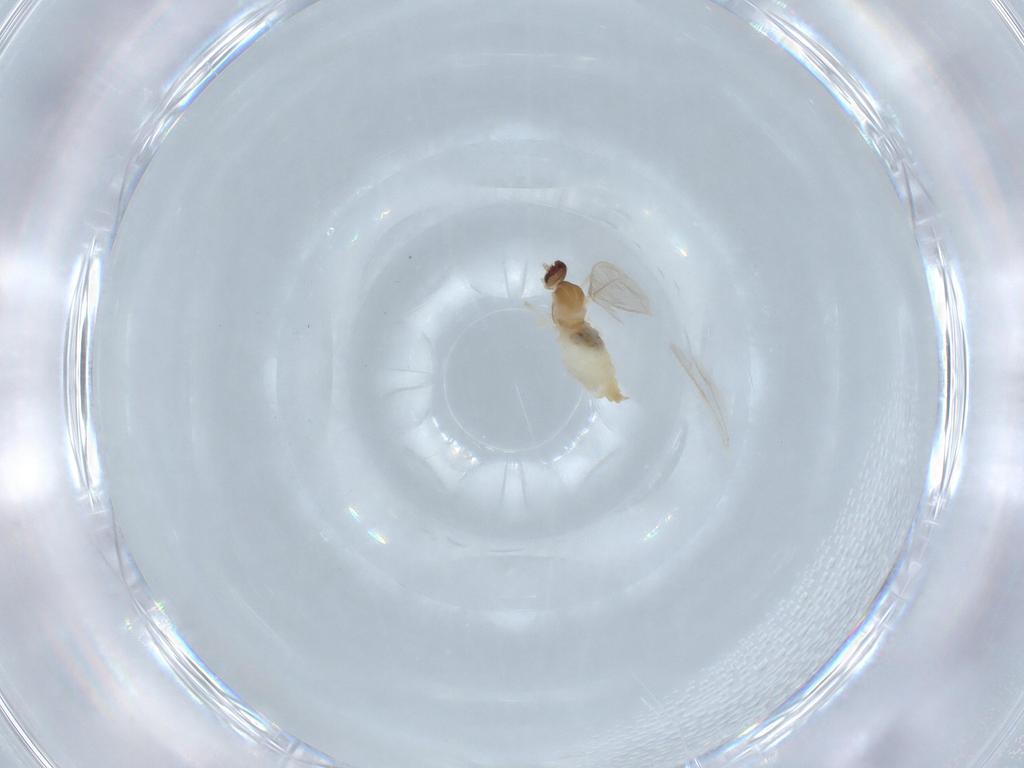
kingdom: Animalia
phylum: Arthropoda
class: Insecta
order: Diptera
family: Cecidomyiidae
